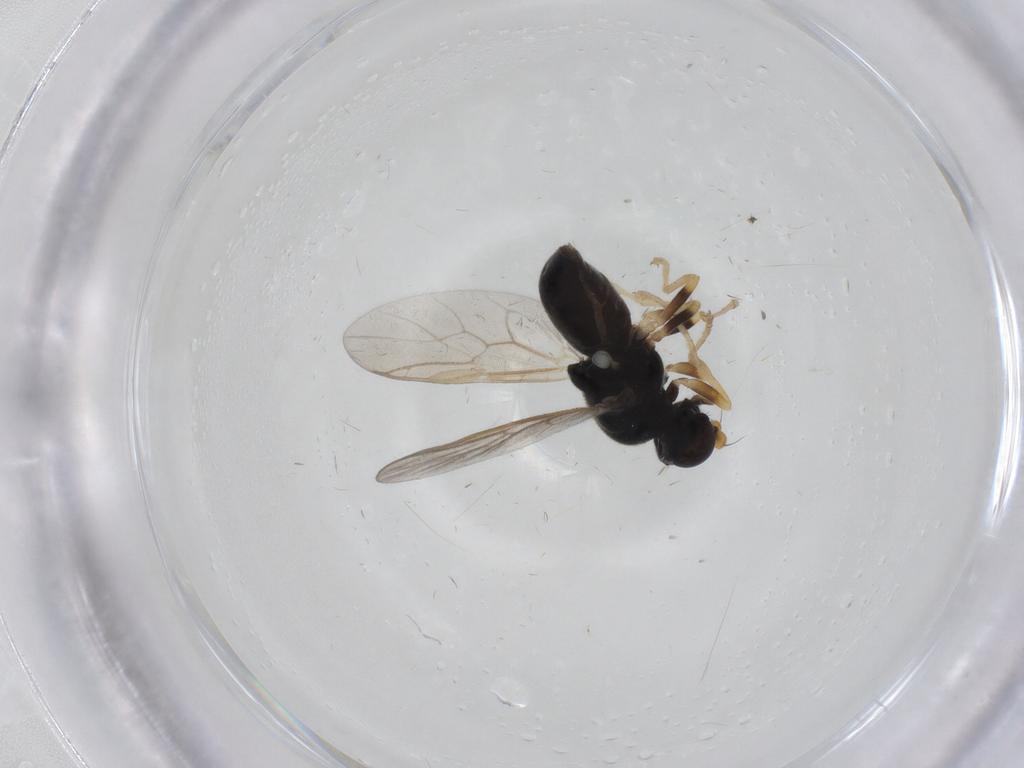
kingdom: Animalia
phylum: Arthropoda
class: Insecta
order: Diptera
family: Stratiomyidae
